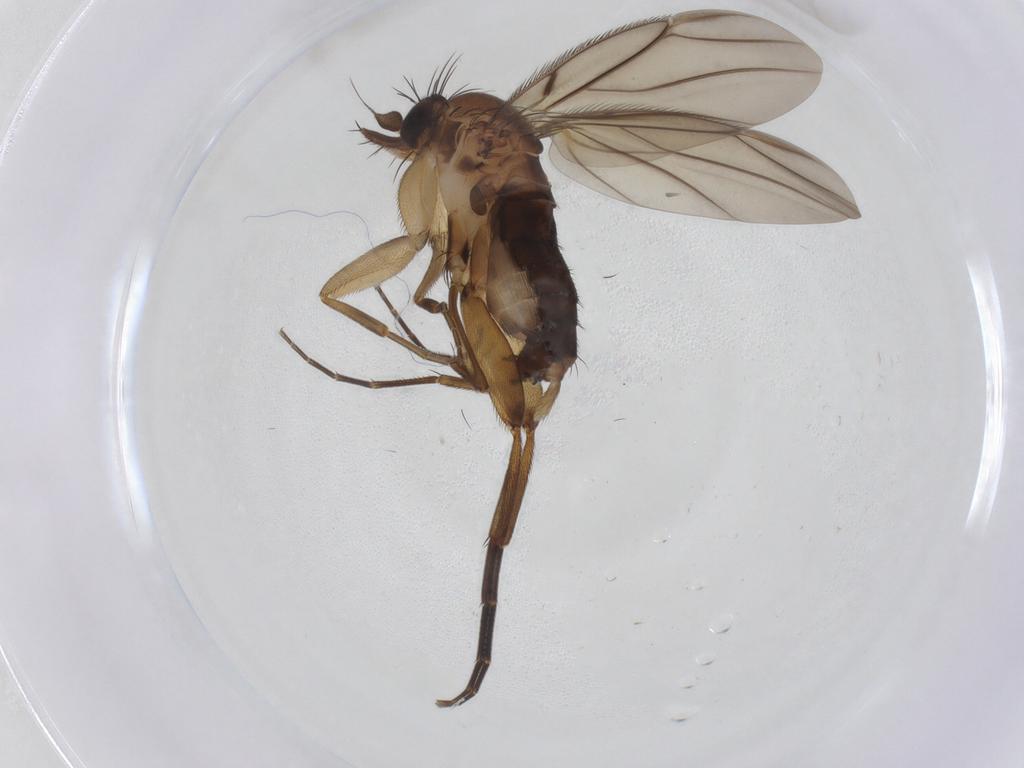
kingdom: Animalia
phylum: Arthropoda
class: Insecta
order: Diptera
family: Phoridae
